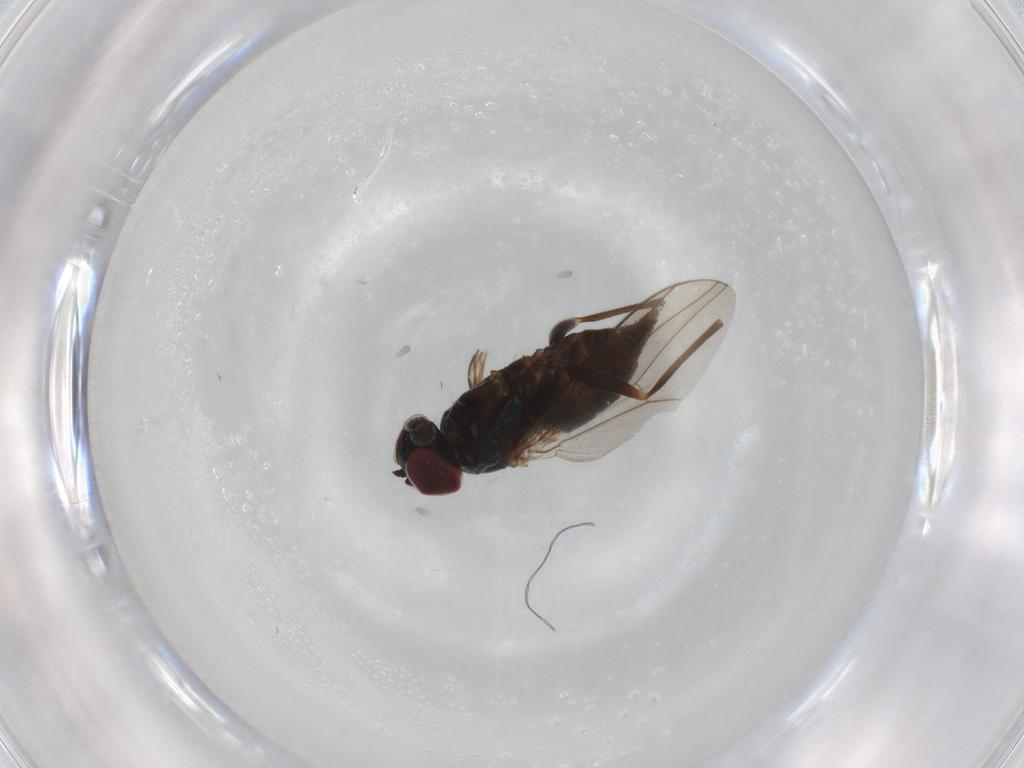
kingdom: Animalia
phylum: Arthropoda
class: Insecta
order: Diptera
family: Dolichopodidae
